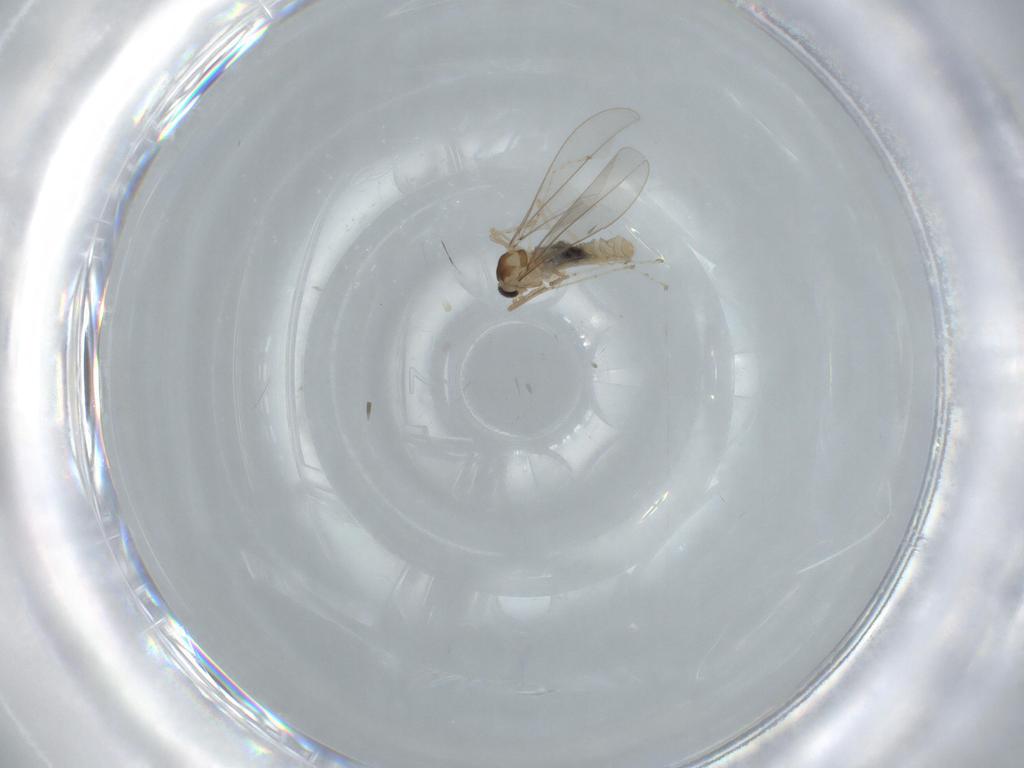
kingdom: Animalia
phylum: Arthropoda
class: Insecta
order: Diptera
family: Cecidomyiidae
